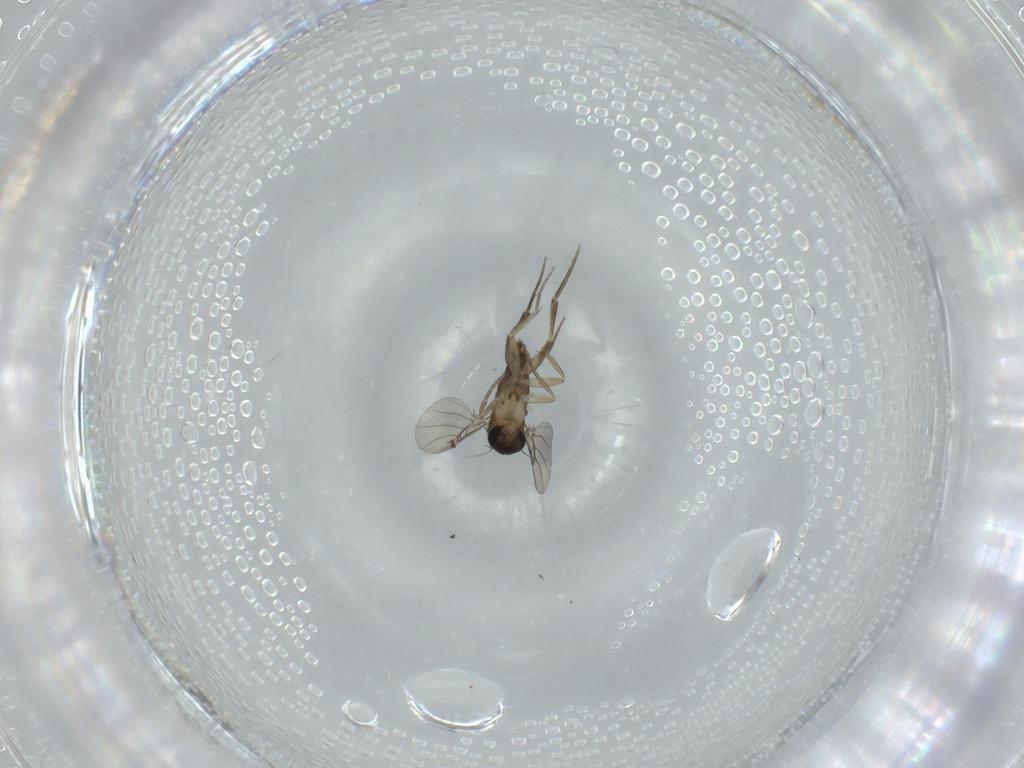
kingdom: Animalia
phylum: Arthropoda
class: Insecta
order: Diptera
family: Phoridae
